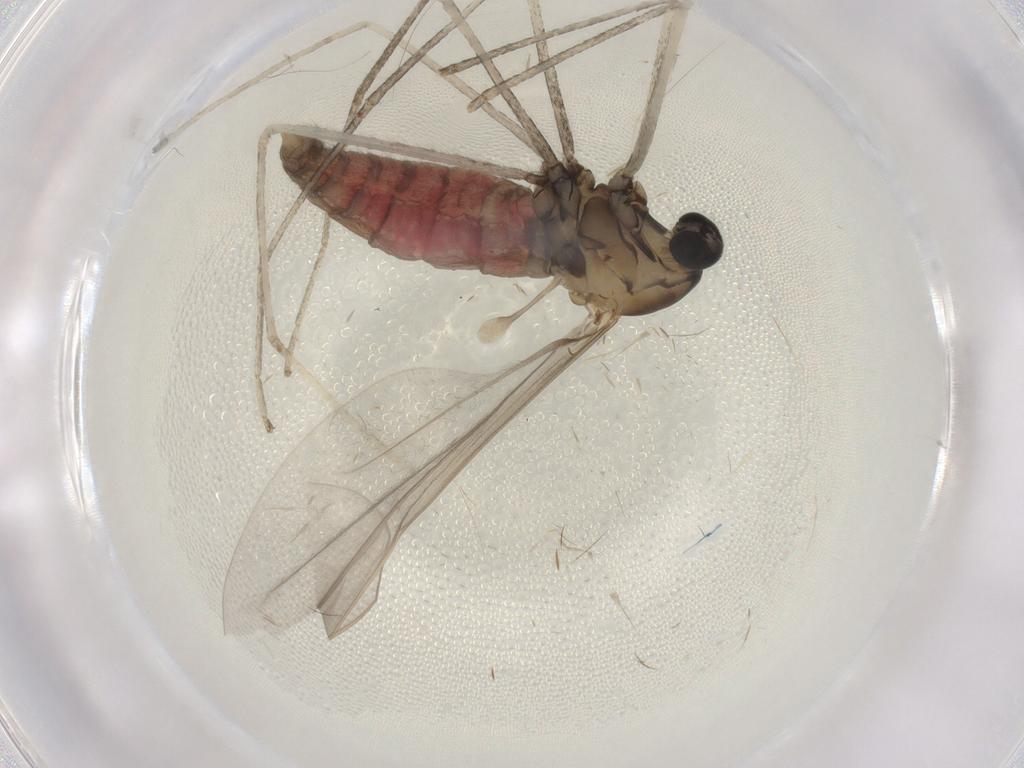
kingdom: Animalia
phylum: Arthropoda
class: Insecta
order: Diptera
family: Cecidomyiidae
